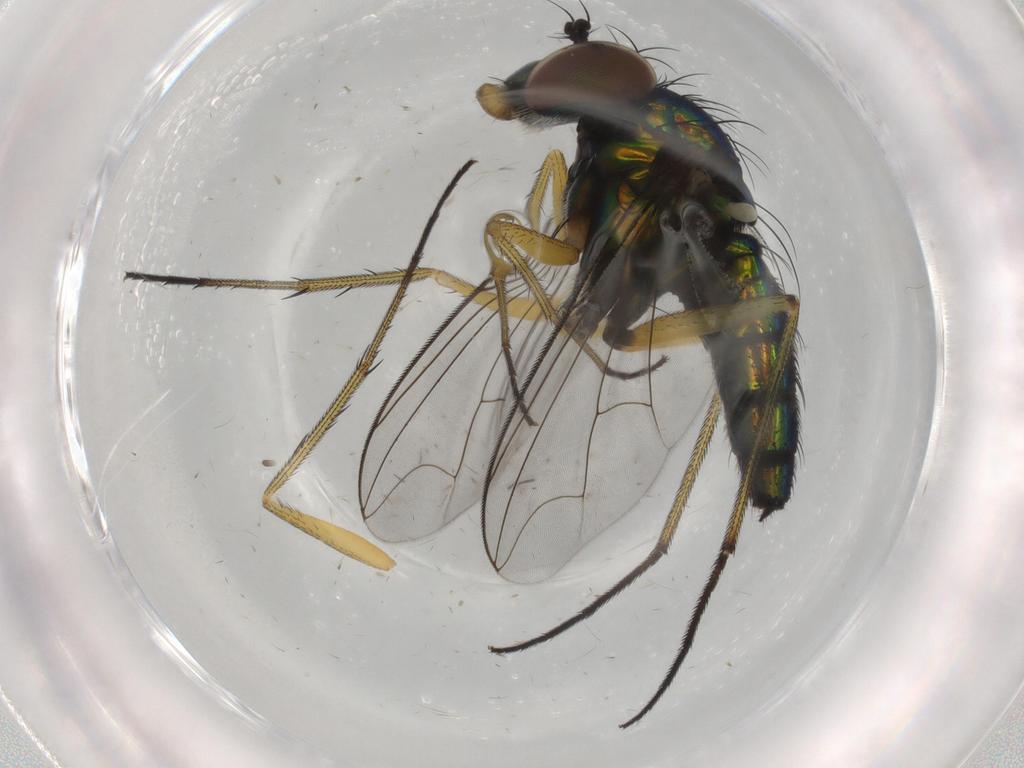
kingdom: Animalia
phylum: Arthropoda
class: Insecta
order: Diptera
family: Dolichopodidae
